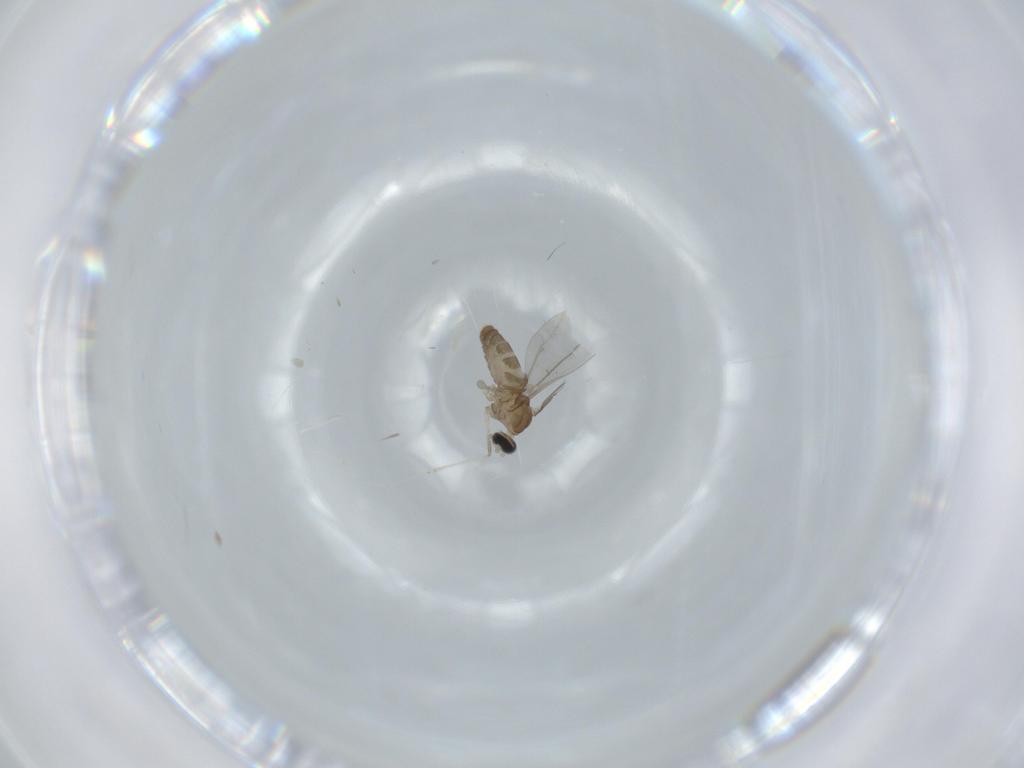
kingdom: Animalia
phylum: Arthropoda
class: Insecta
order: Diptera
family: Cecidomyiidae
